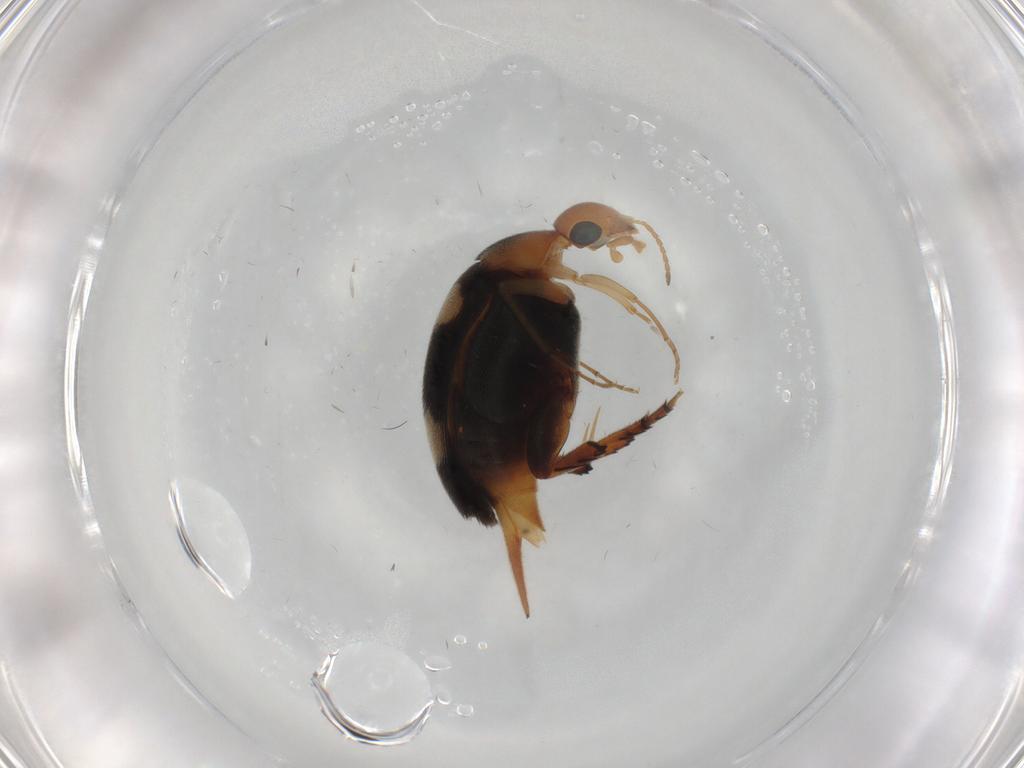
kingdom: Animalia
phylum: Arthropoda
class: Insecta
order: Coleoptera
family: Mordellidae
